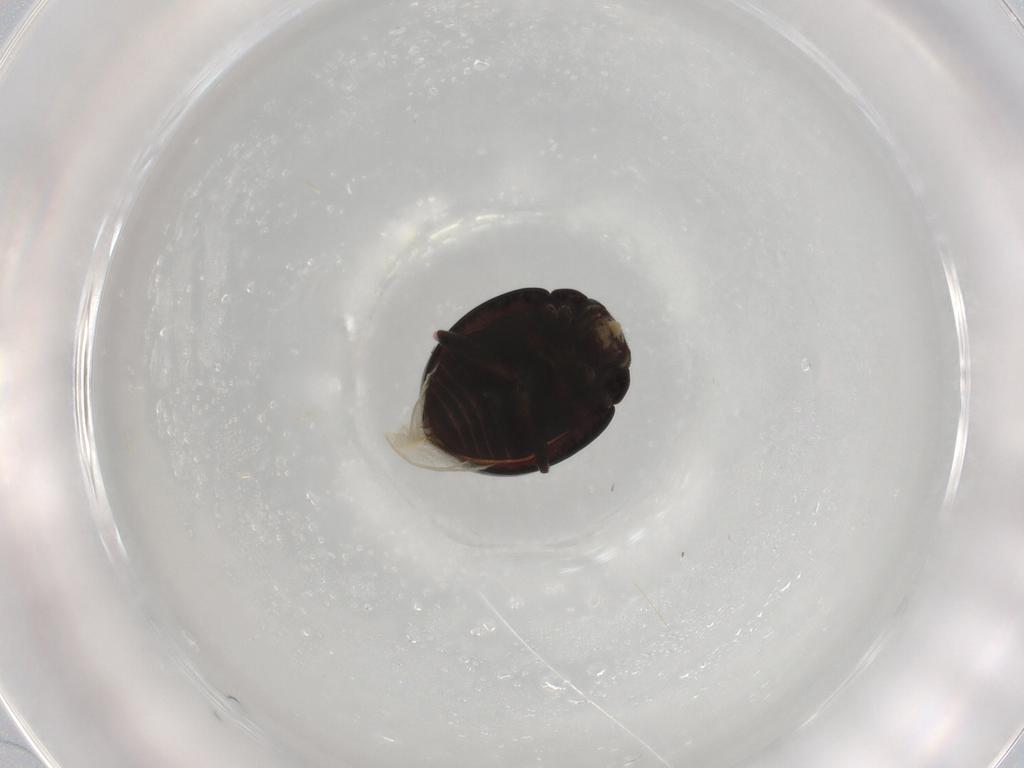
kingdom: Animalia
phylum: Arthropoda
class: Insecta
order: Coleoptera
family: Coccinellidae
